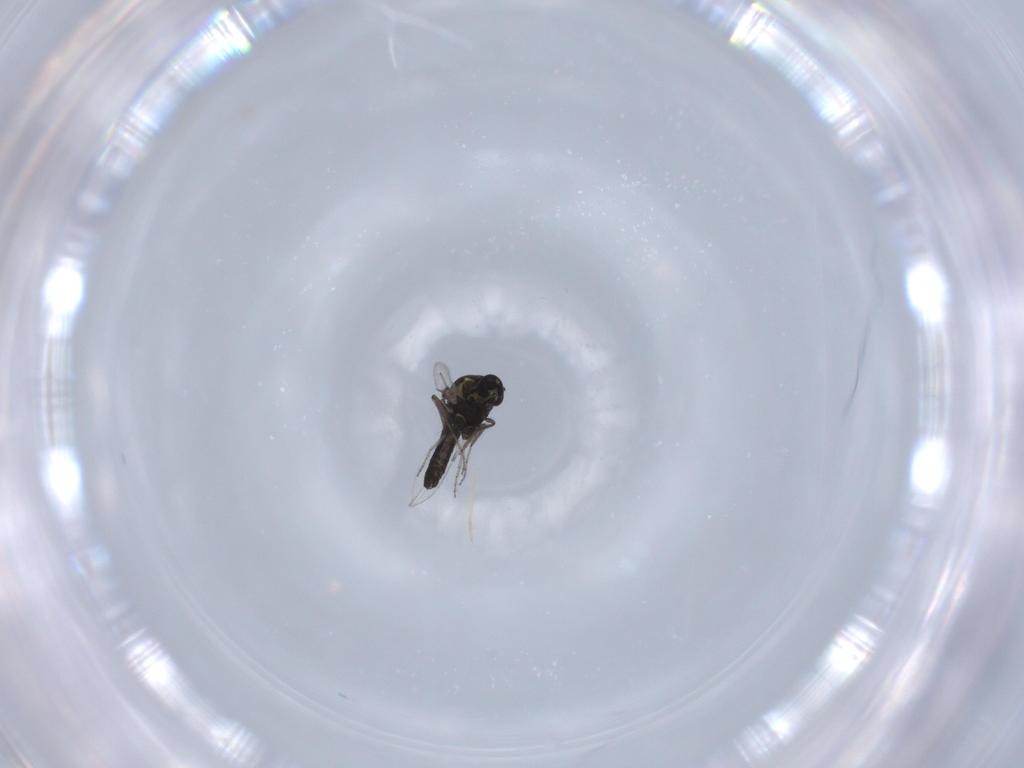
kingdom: Animalia
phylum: Arthropoda
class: Insecta
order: Diptera
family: Ceratopogonidae
